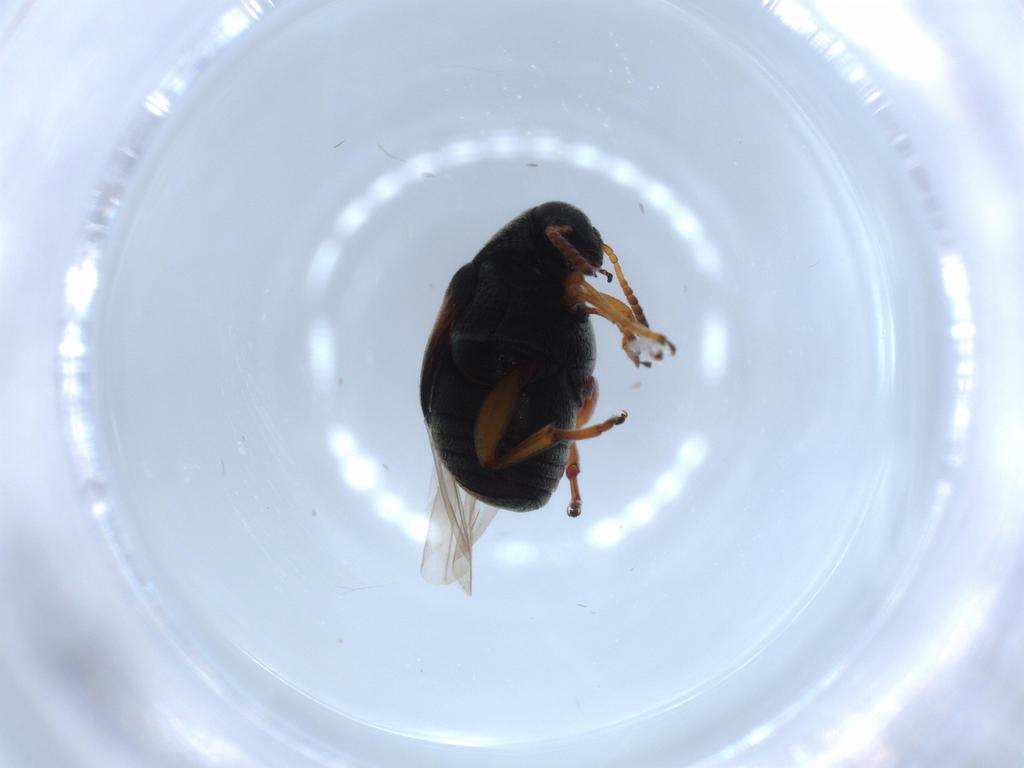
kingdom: Animalia
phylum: Arthropoda
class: Insecta
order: Coleoptera
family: Chrysomelidae
